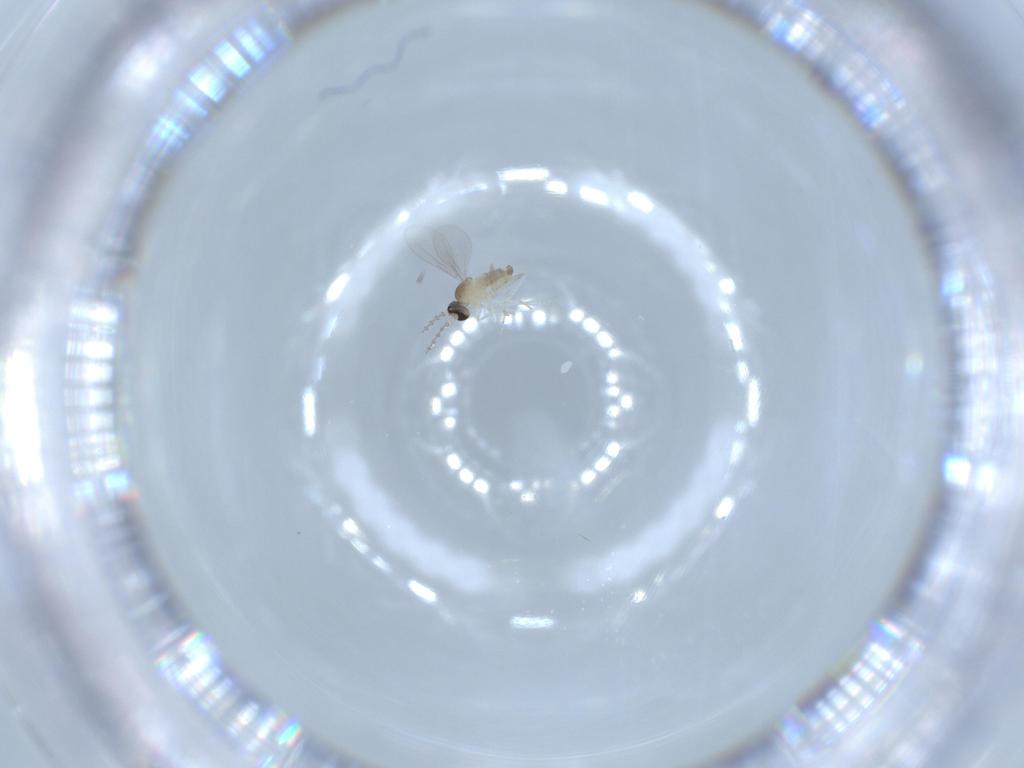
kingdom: Animalia
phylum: Arthropoda
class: Insecta
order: Diptera
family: Cecidomyiidae
